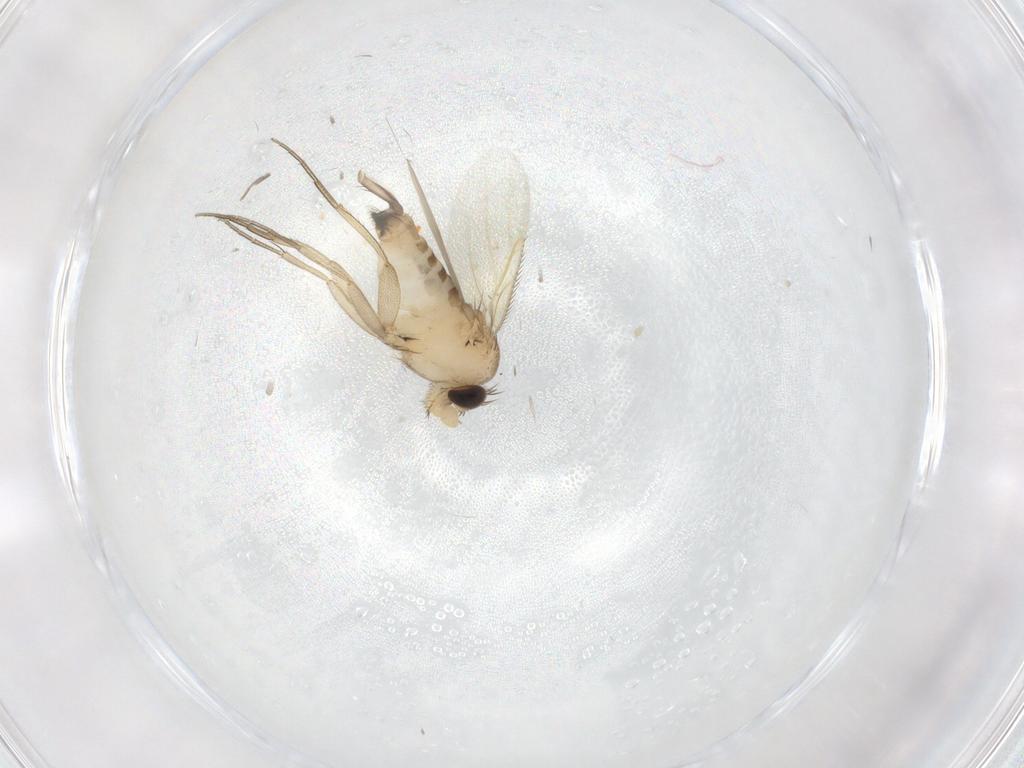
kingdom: Animalia
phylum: Arthropoda
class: Insecta
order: Diptera
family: Phoridae
